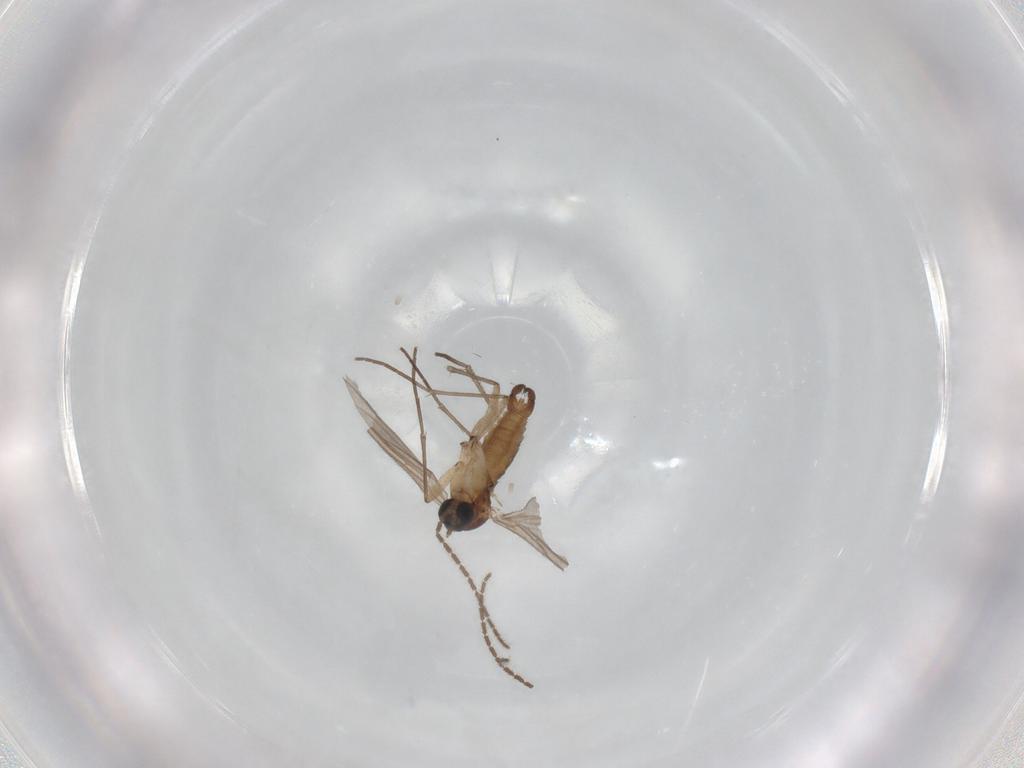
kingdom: Animalia
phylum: Arthropoda
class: Insecta
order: Diptera
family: Sciaridae
